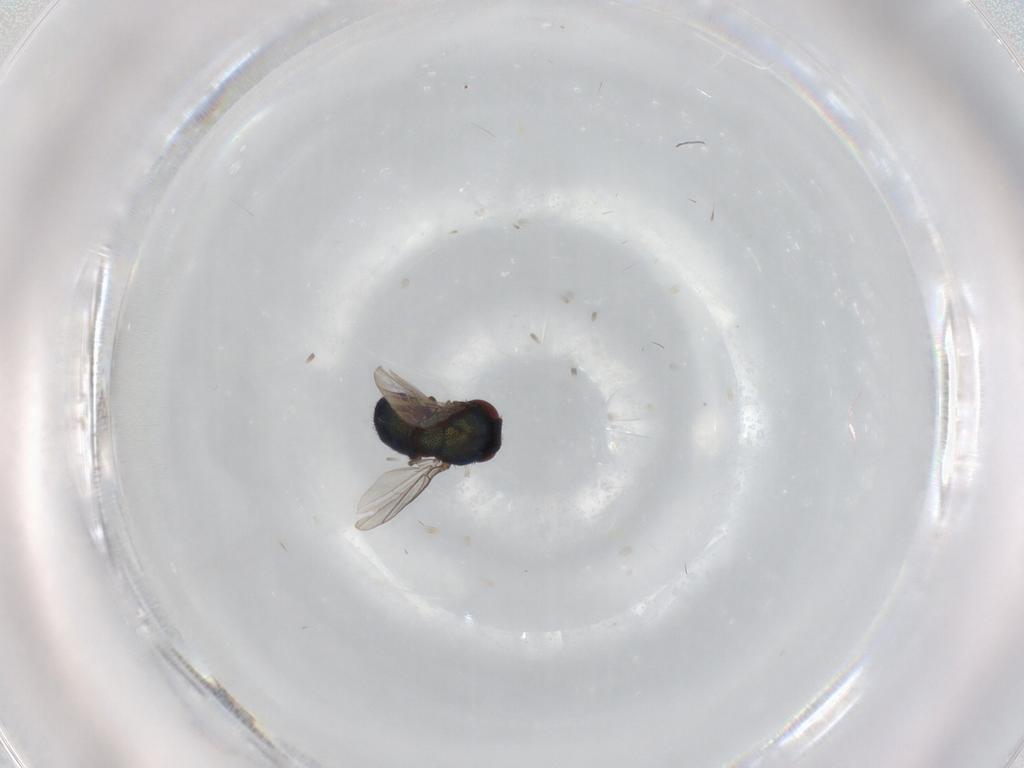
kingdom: Animalia
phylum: Arthropoda
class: Insecta
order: Diptera
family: Cryptochetidae
